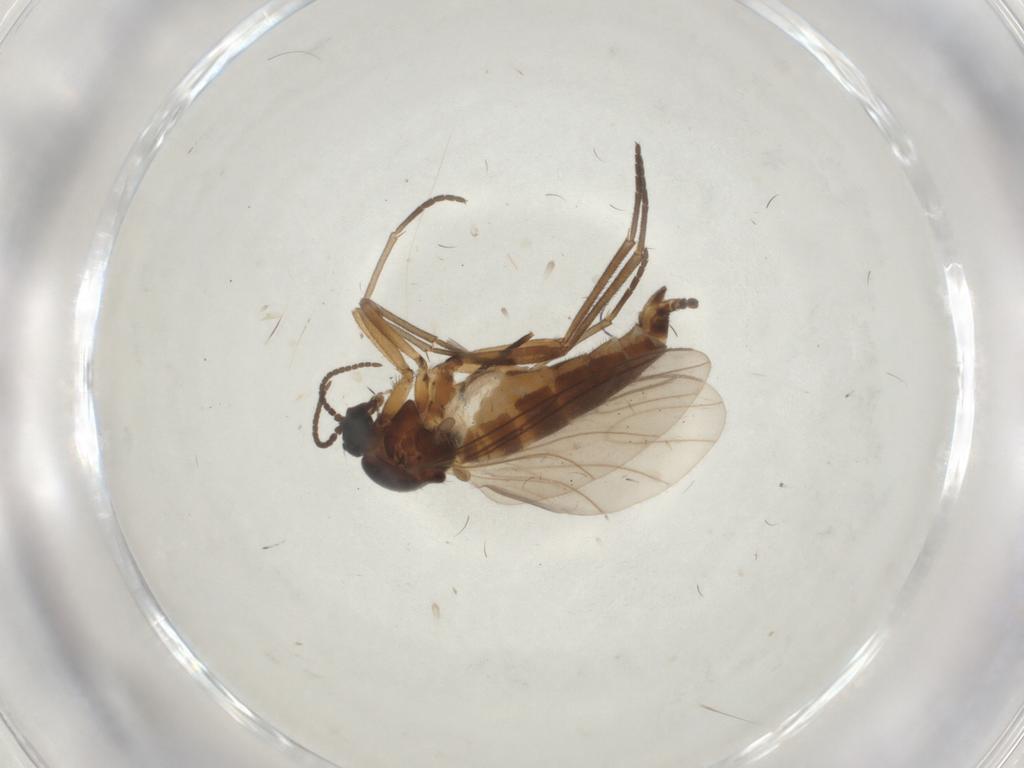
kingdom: Animalia
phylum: Arthropoda
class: Insecta
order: Diptera
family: Sciaridae
